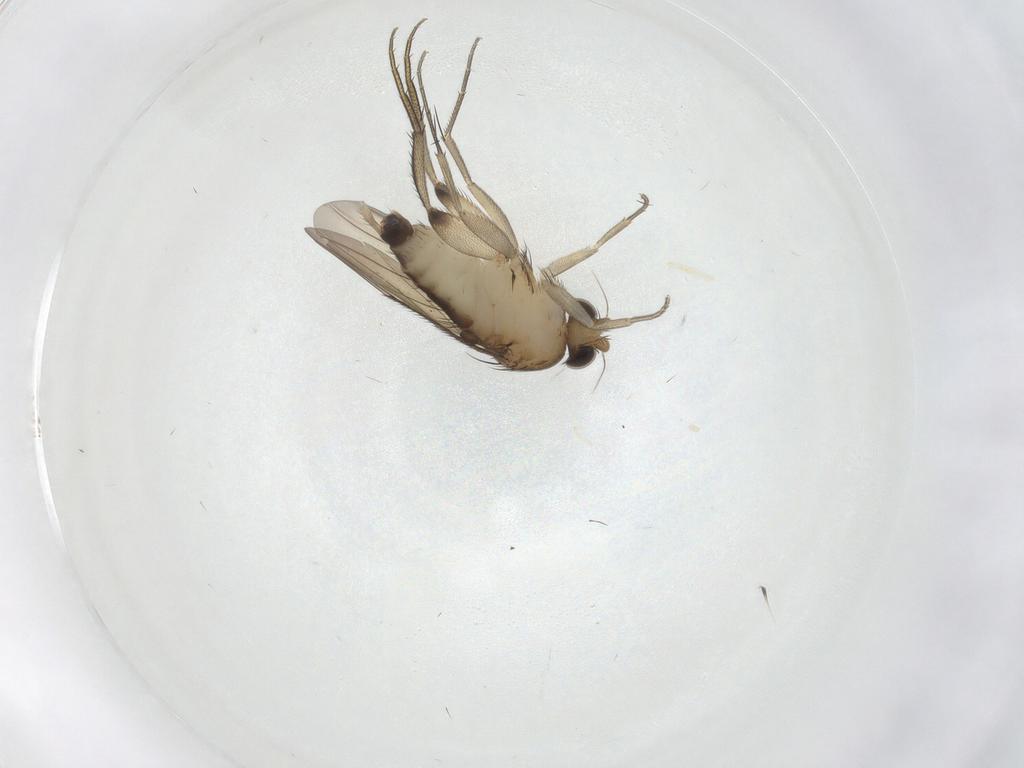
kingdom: Animalia
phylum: Arthropoda
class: Insecta
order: Diptera
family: Phoridae
